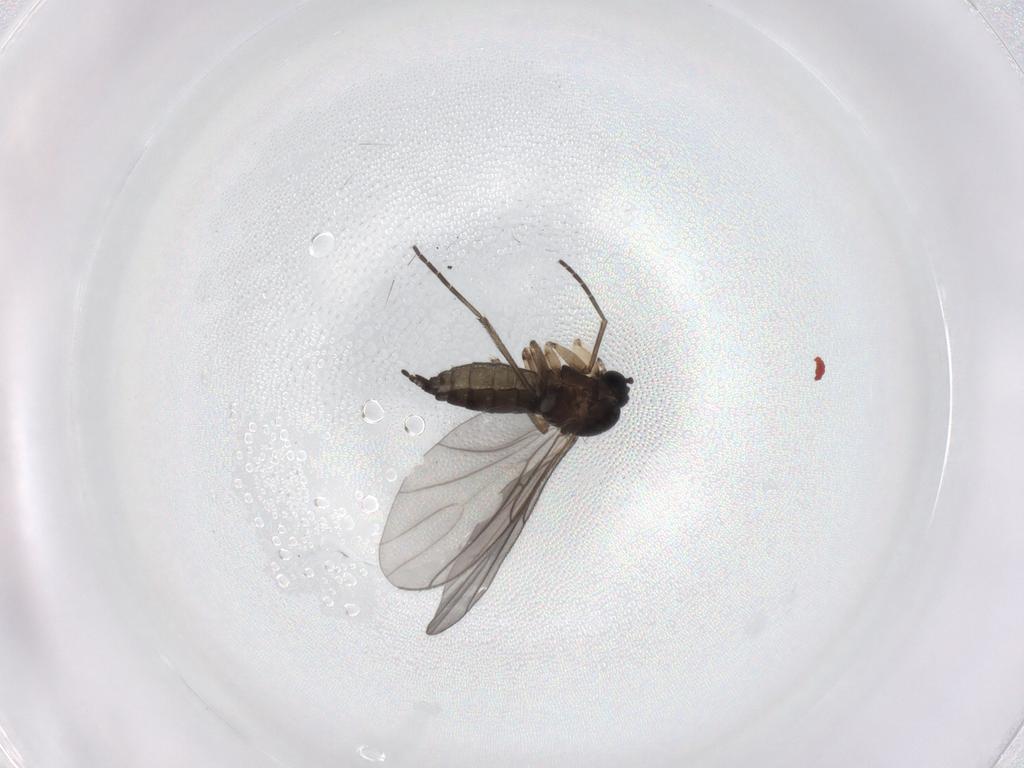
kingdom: Animalia
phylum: Arthropoda
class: Insecta
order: Diptera
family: Sciaridae
